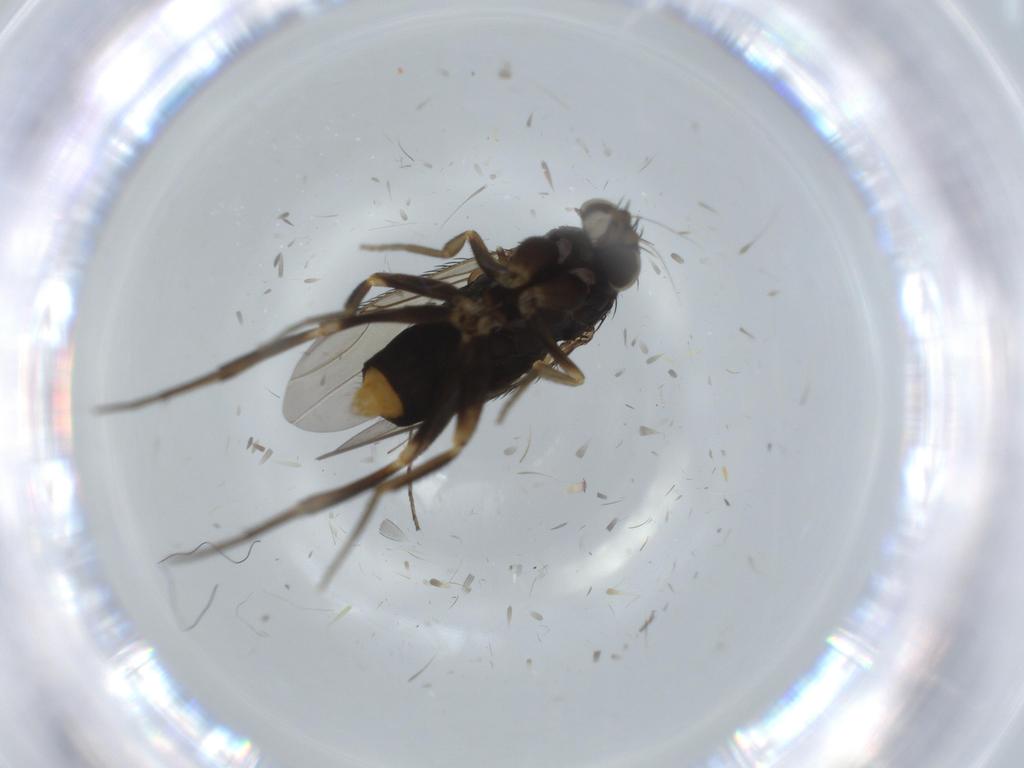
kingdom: Animalia
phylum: Arthropoda
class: Insecta
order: Diptera
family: Phoridae
